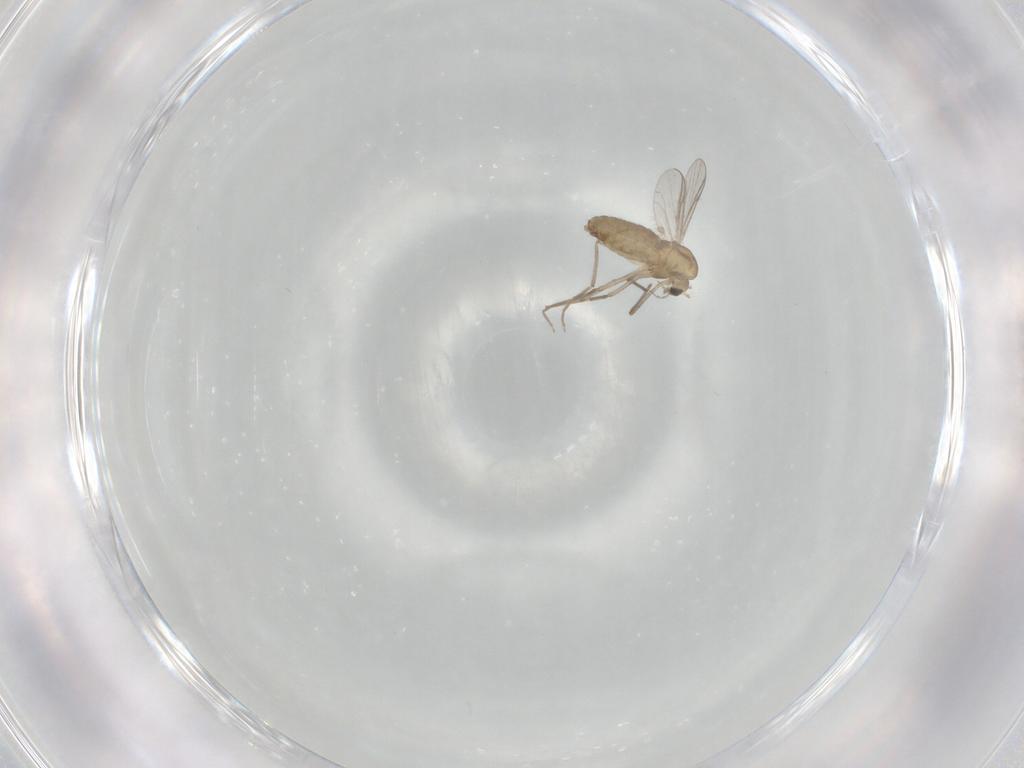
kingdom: Animalia
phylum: Arthropoda
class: Insecta
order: Diptera
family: Chironomidae
